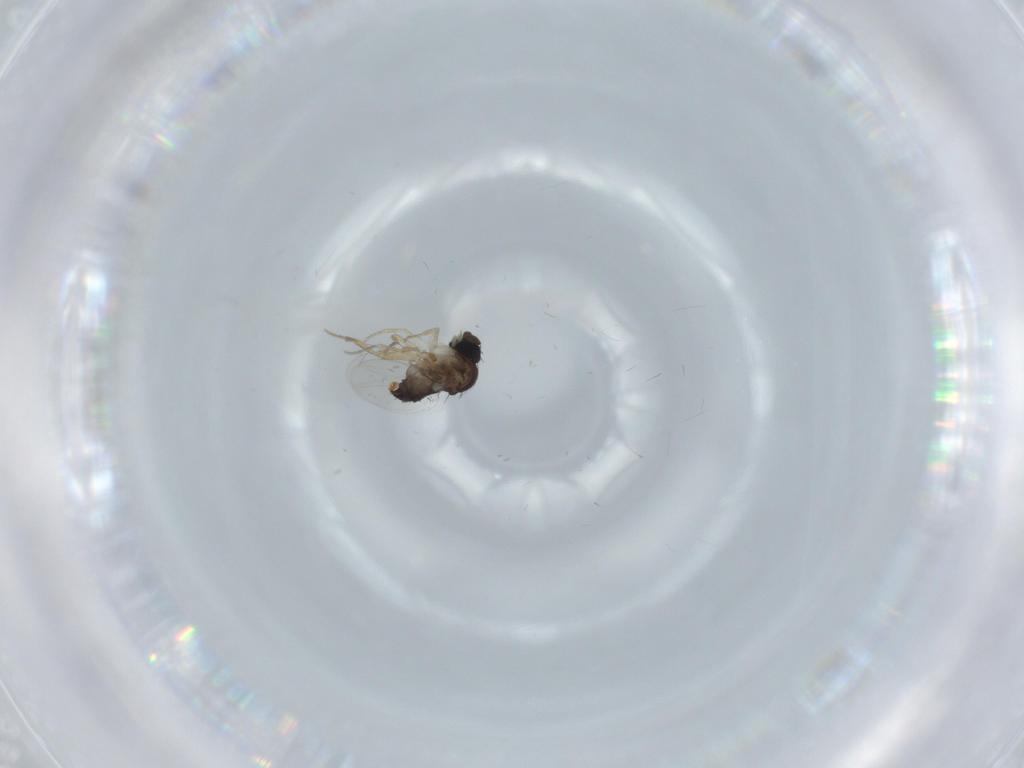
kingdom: Animalia
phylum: Arthropoda
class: Insecta
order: Diptera
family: Phoridae
